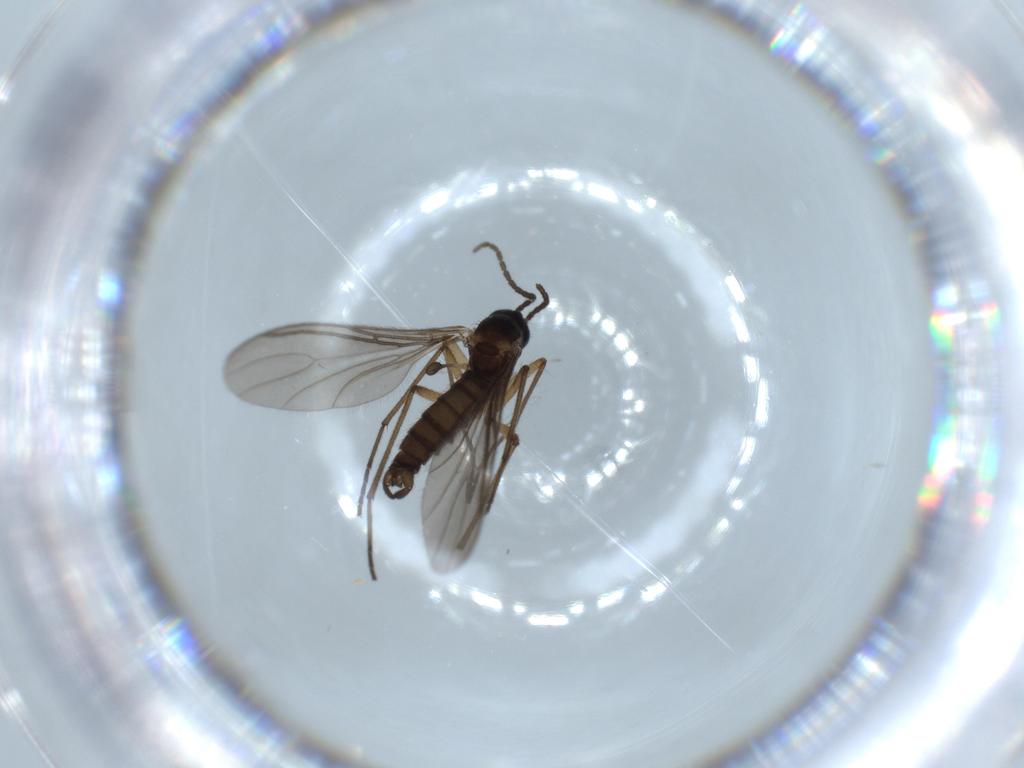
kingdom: Animalia
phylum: Arthropoda
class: Insecta
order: Diptera
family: Sciaridae
